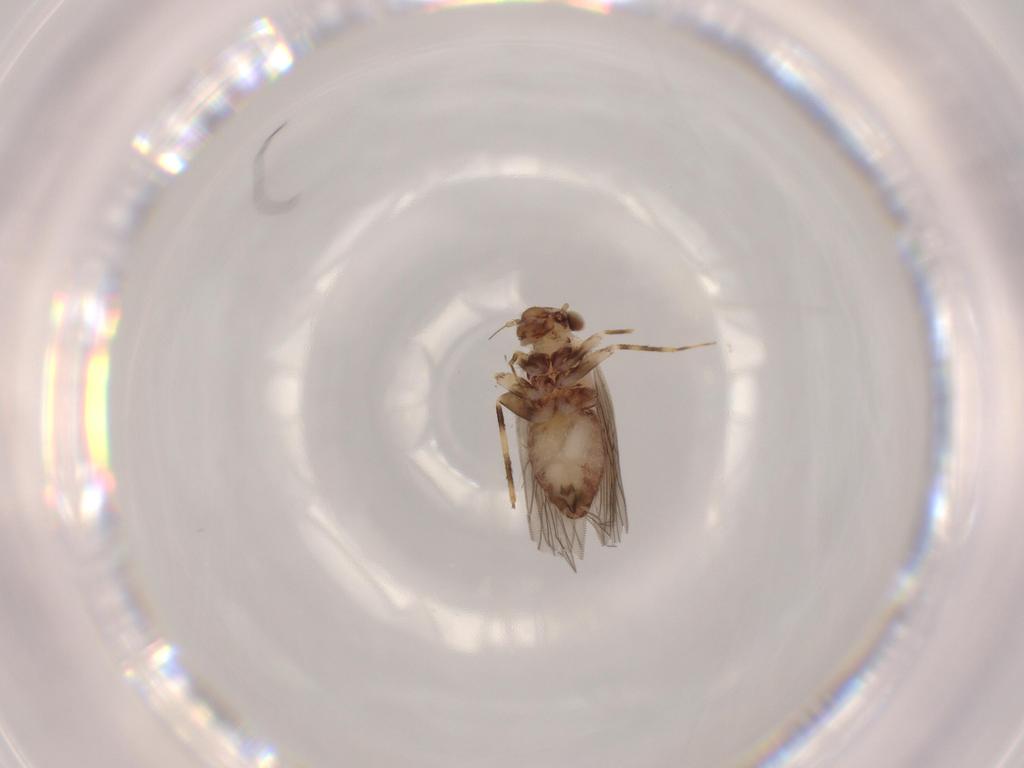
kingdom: Animalia
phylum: Arthropoda
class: Insecta
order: Psocodea
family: Lepidopsocidae
